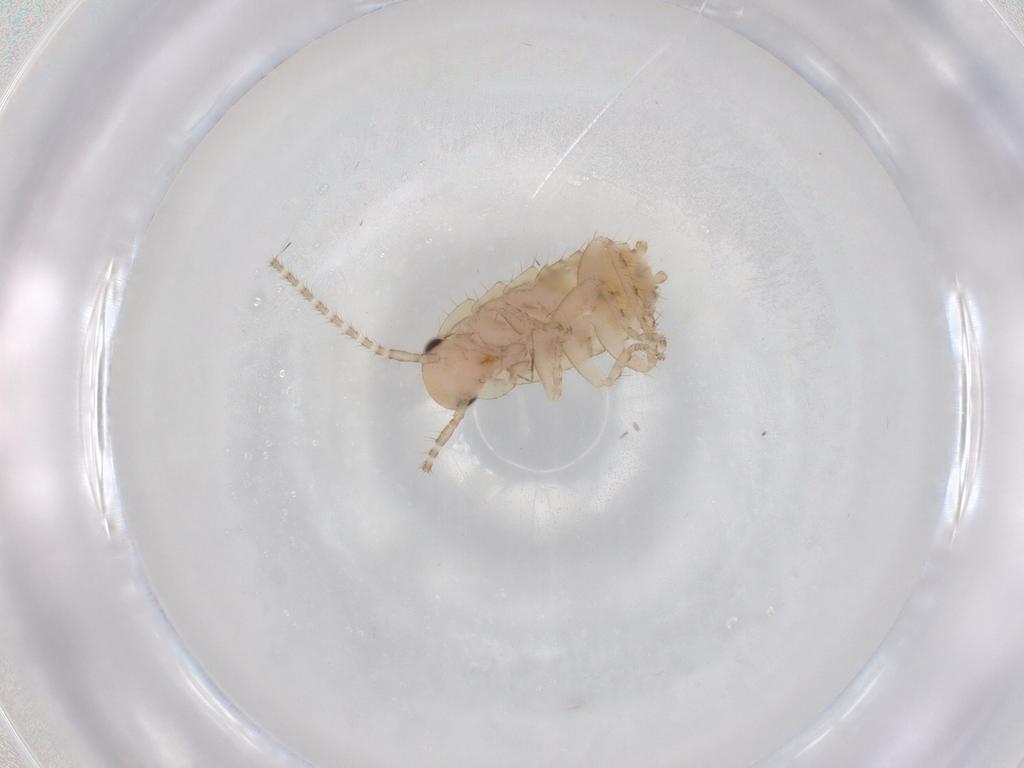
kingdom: Animalia
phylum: Arthropoda
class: Insecta
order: Blattodea
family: Ectobiidae
